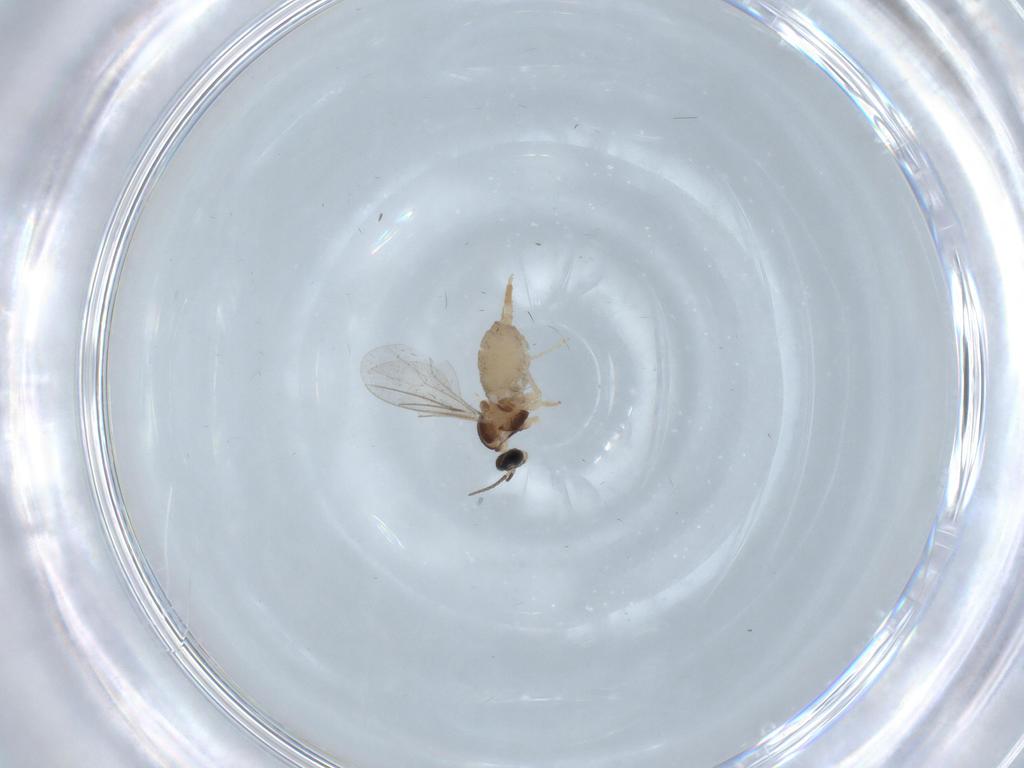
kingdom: Animalia
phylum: Arthropoda
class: Insecta
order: Diptera
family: Cecidomyiidae
